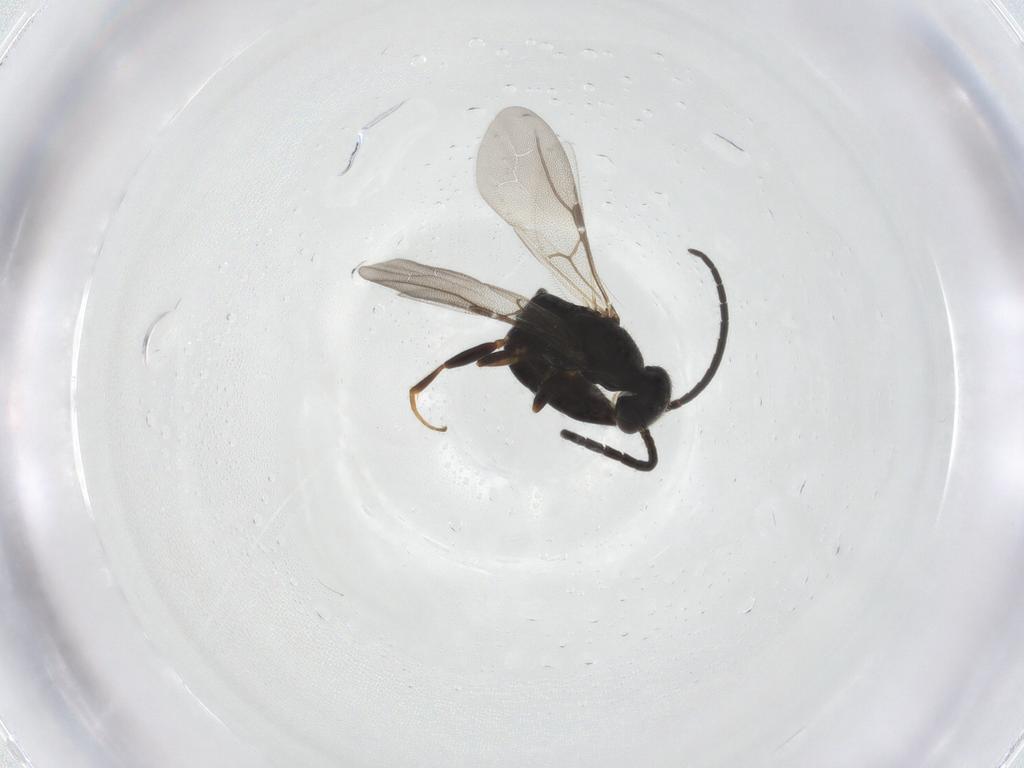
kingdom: Animalia
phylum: Arthropoda
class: Insecta
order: Hymenoptera
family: Bethylidae
